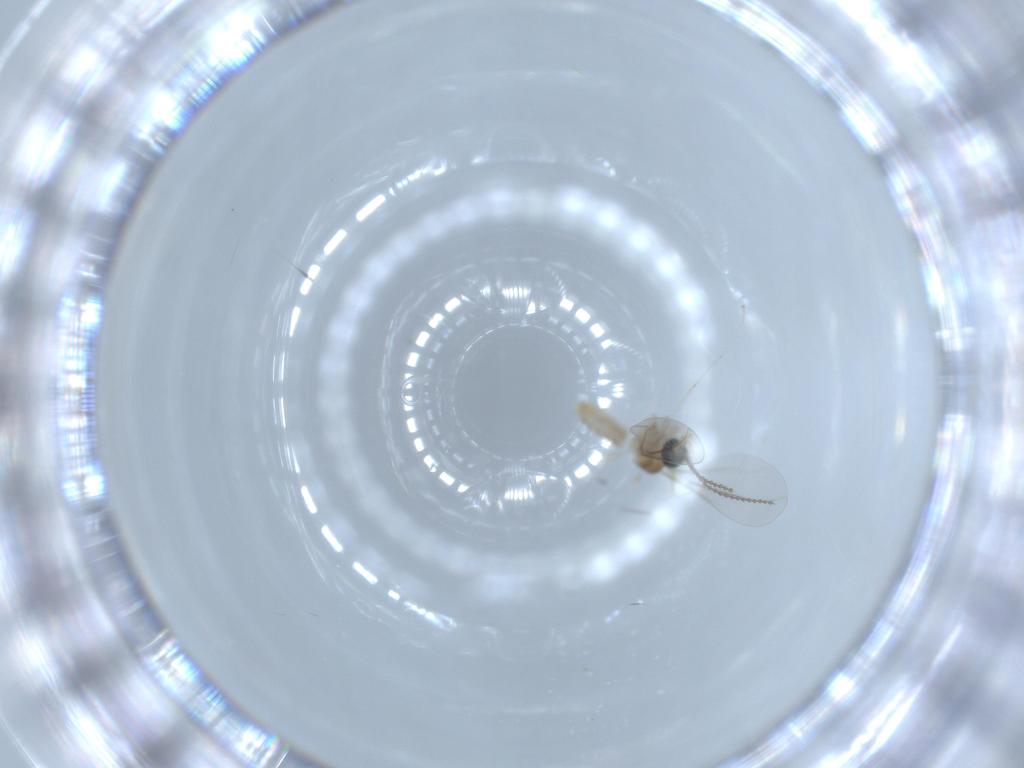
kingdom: Animalia
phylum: Arthropoda
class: Insecta
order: Diptera
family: Cecidomyiidae
